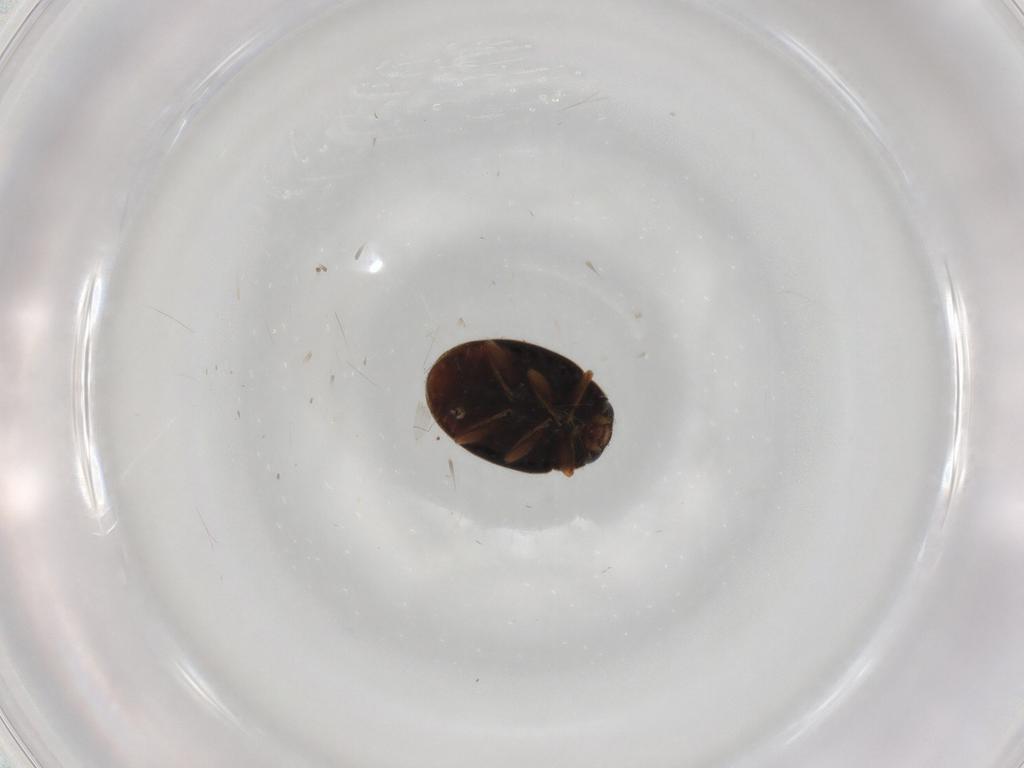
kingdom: Animalia
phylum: Arthropoda
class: Insecta
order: Coleoptera
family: Coccinellidae
